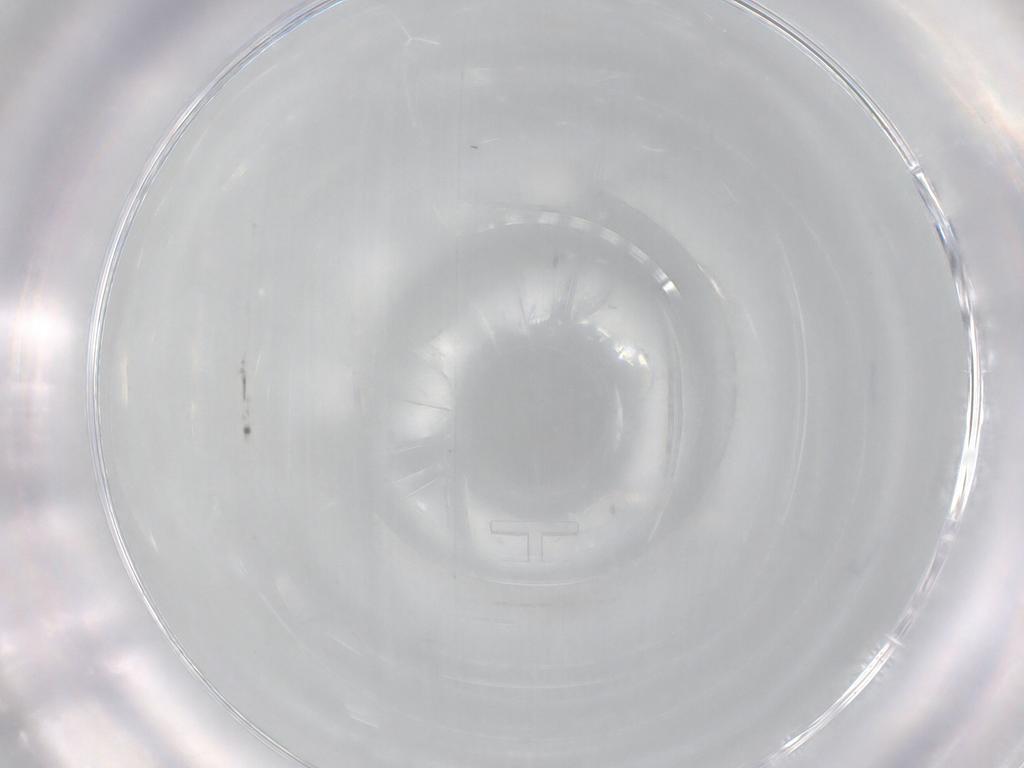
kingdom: Animalia
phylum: Arthropoda
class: Insecta
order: Hemiptera
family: Aleyrodidae
